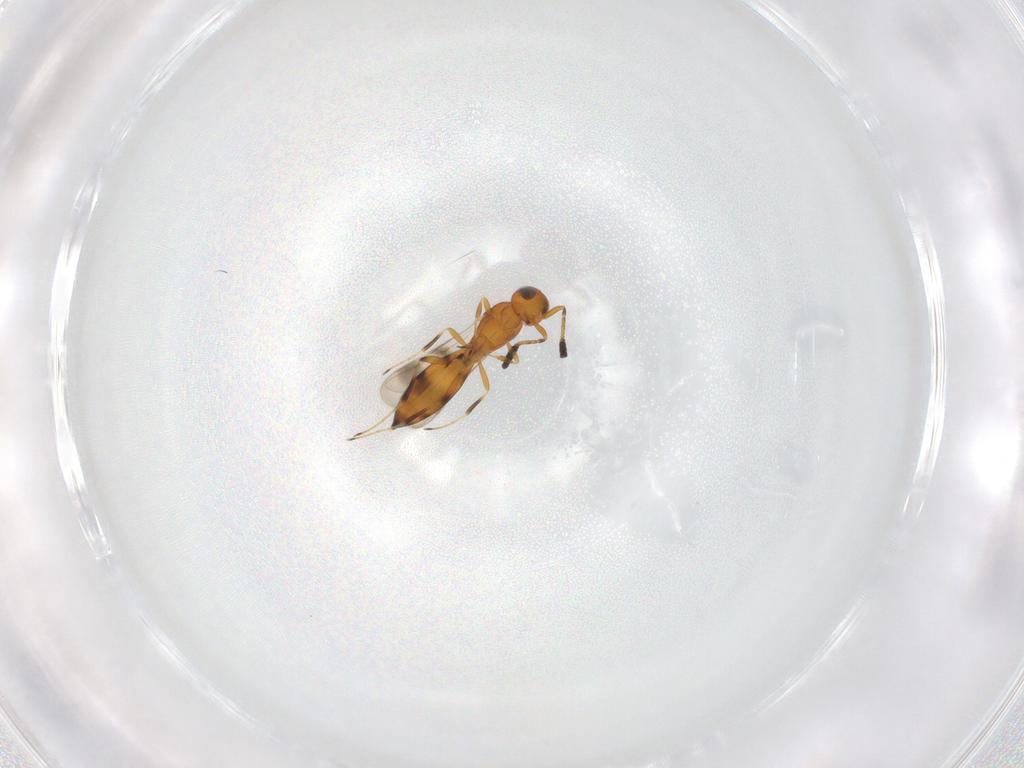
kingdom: Animalia
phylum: Arthropoda
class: Insecta
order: Hymenoptera
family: Scelionidae
